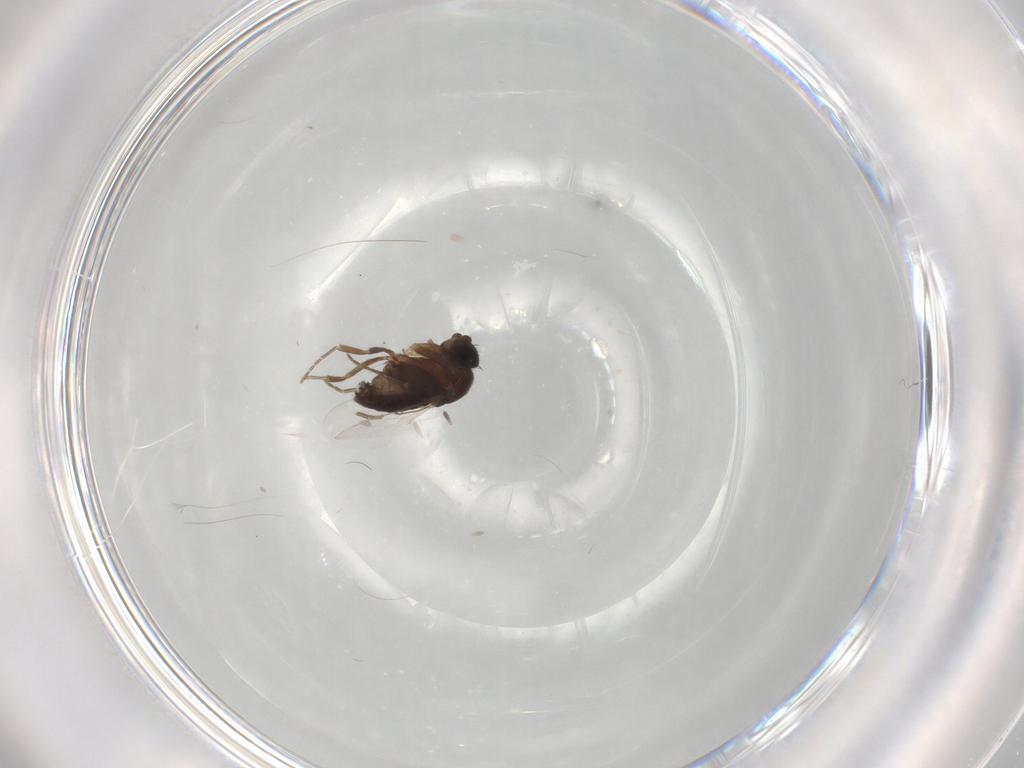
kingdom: Animalia
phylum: Arthropoda
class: Insecta
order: Diptera
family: Phoridae
